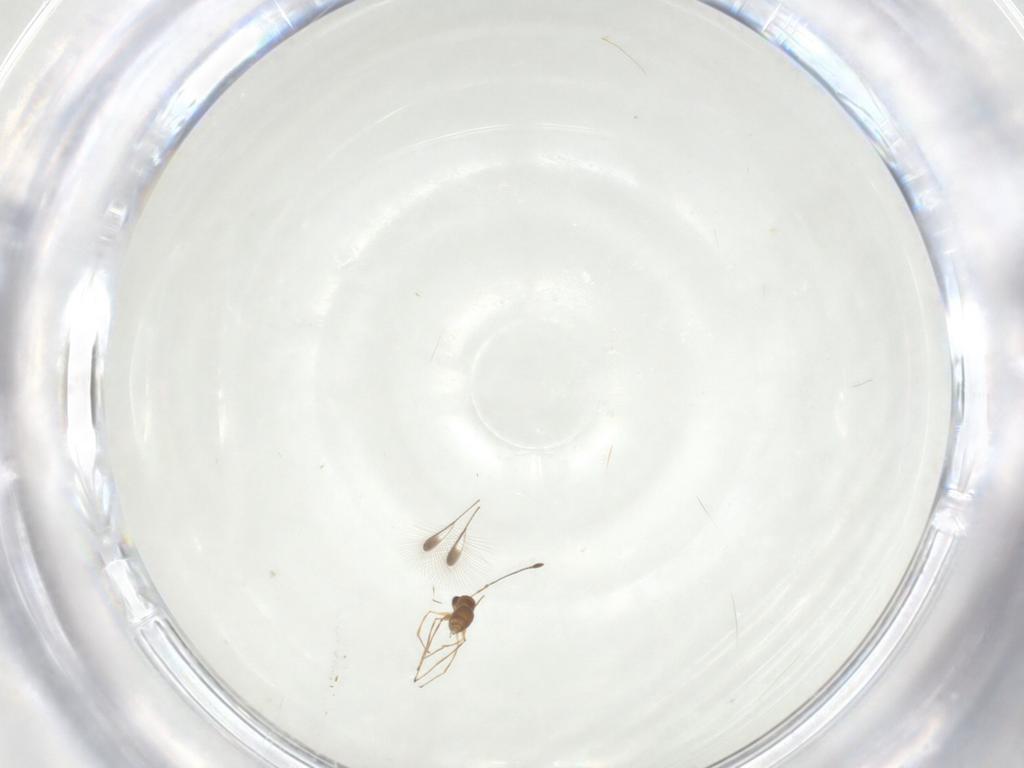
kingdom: Animalia
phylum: Arthropoda
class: Insecta
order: Hymenoptera
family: Mymaridae
